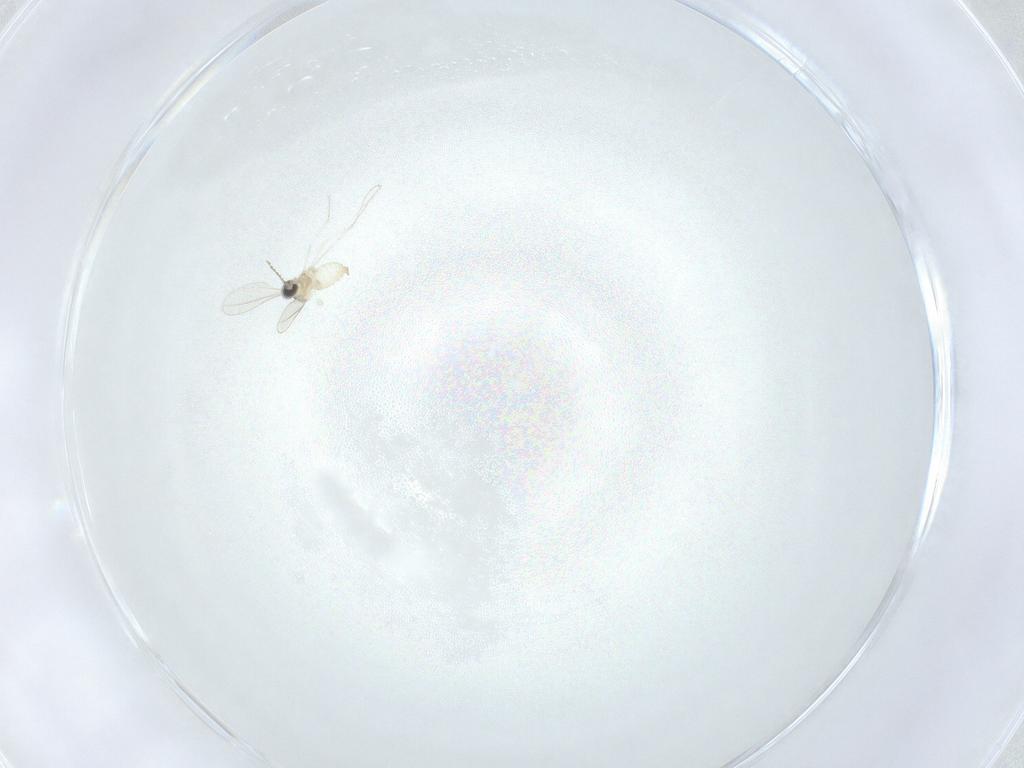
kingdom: Animalia
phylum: Arthropoda
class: Insecta
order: Diptera
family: Cecidomyiidae
